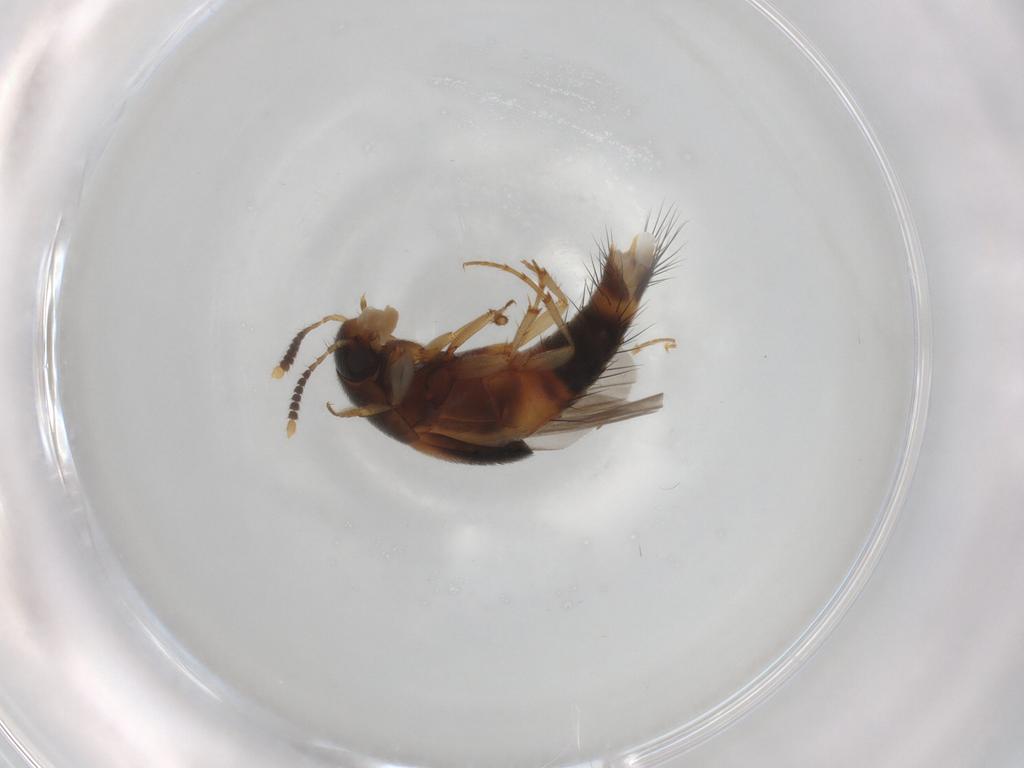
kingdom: Animalia
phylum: Arthropoda
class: Insecta
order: Coleoptera
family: Staphylinidae
